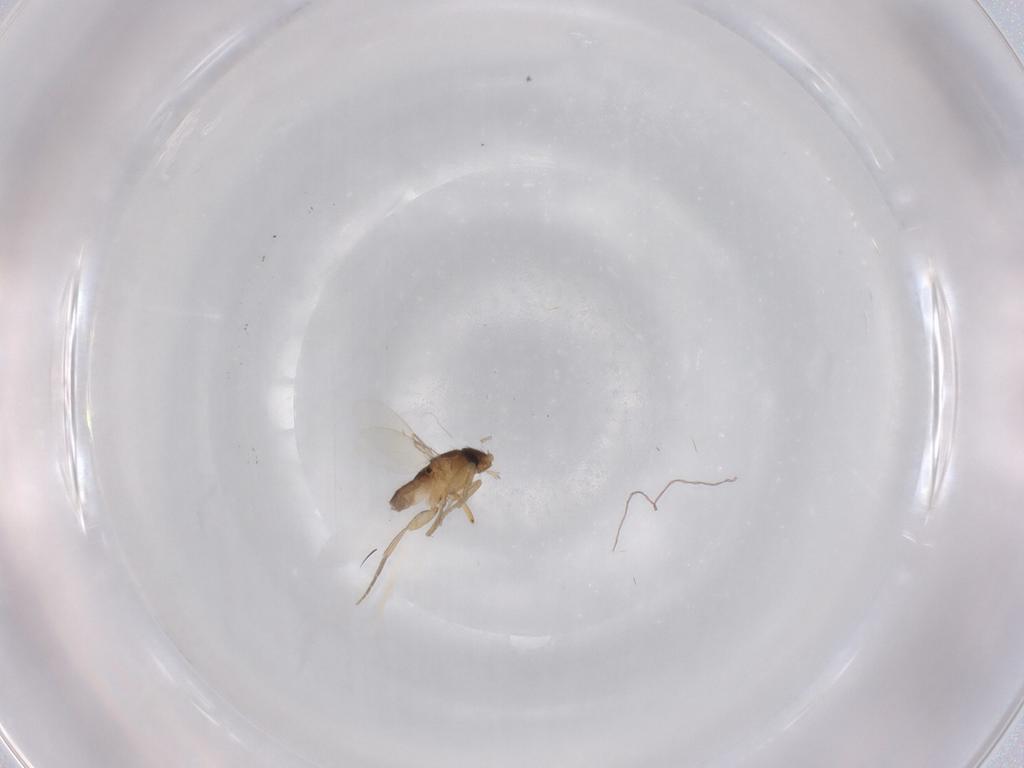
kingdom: Animalia
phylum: Arthropoda
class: Insecta
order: Diptera
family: Phoridae
